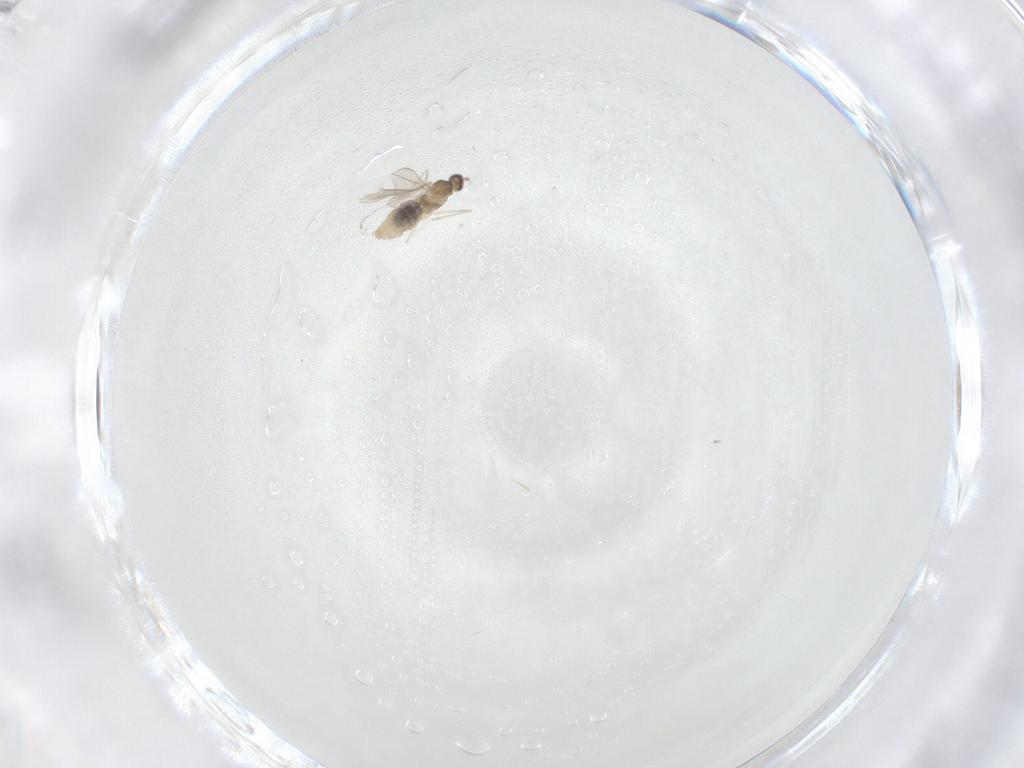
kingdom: Animalia
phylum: Arthropoda
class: Insecta
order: Diptera
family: Cecidomyiidae
